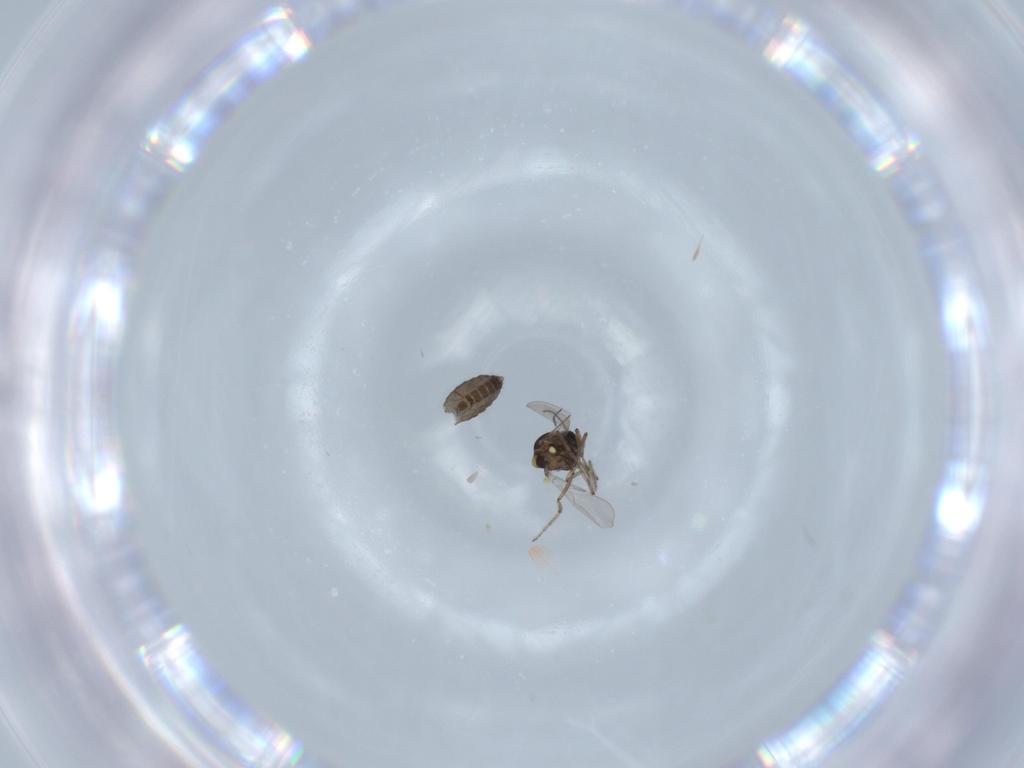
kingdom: Animalia
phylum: Arthropoda
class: Insecta
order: Diptera
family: Ceratopogonidae
